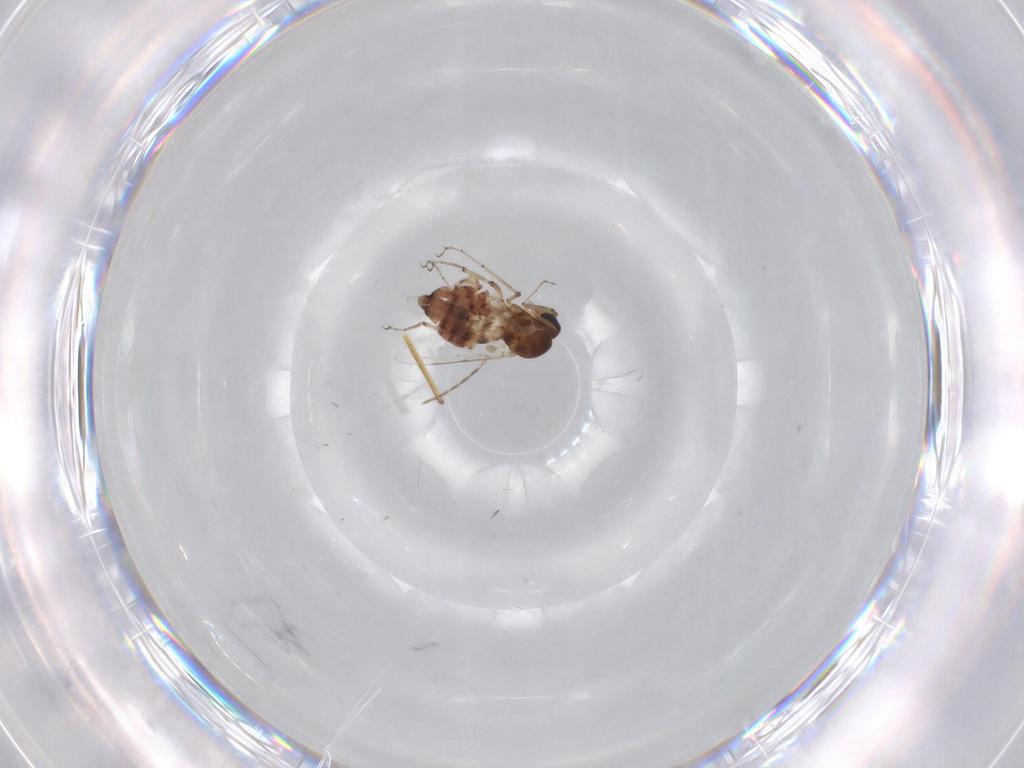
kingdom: Animalia
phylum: Arthropoda
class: Insecta
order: Diptera
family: Ceratopogonidae
